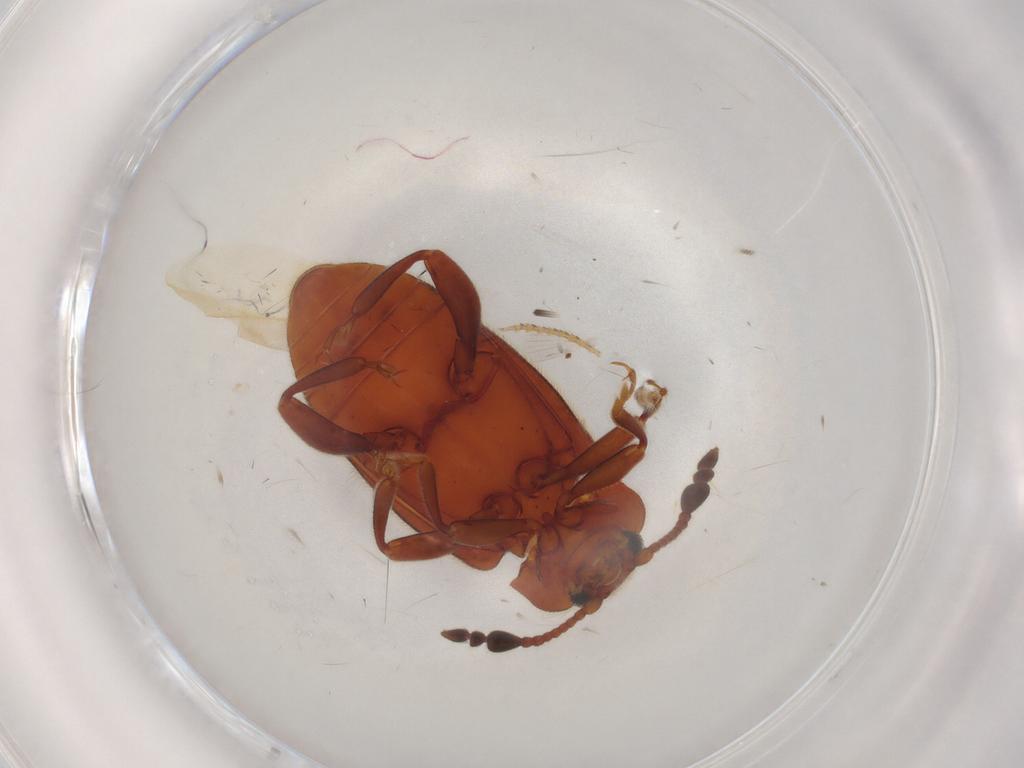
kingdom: Animalia
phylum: Arthropoda
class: Insecta
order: Coleoptera
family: Endomychidae
